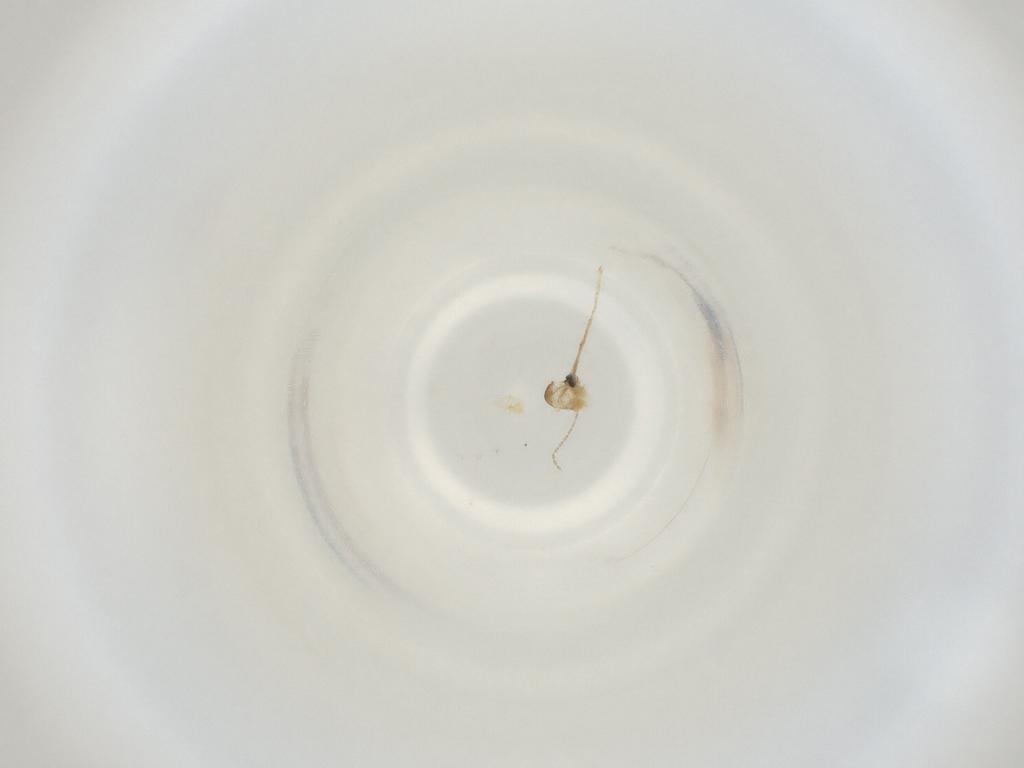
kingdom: Animalia
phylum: Arthropoda
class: Insecta
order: Diptera
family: Cecidomyiidae
